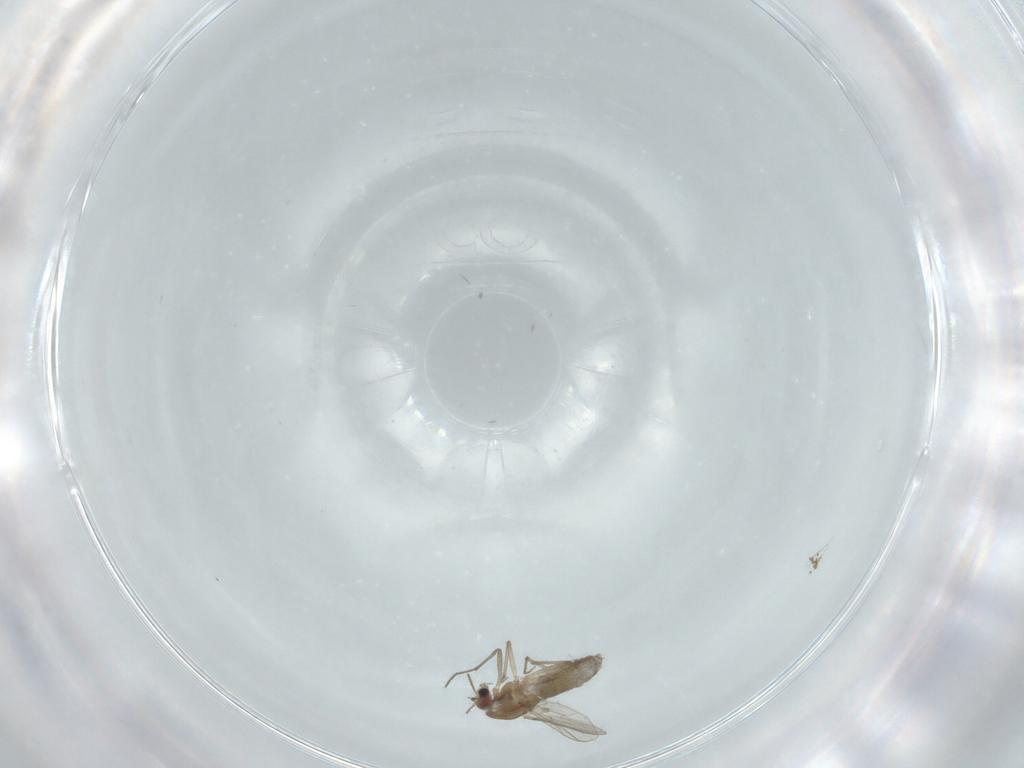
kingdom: Animalia
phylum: Arthropoda
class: Insecta
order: Diptera
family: Chironomidae
